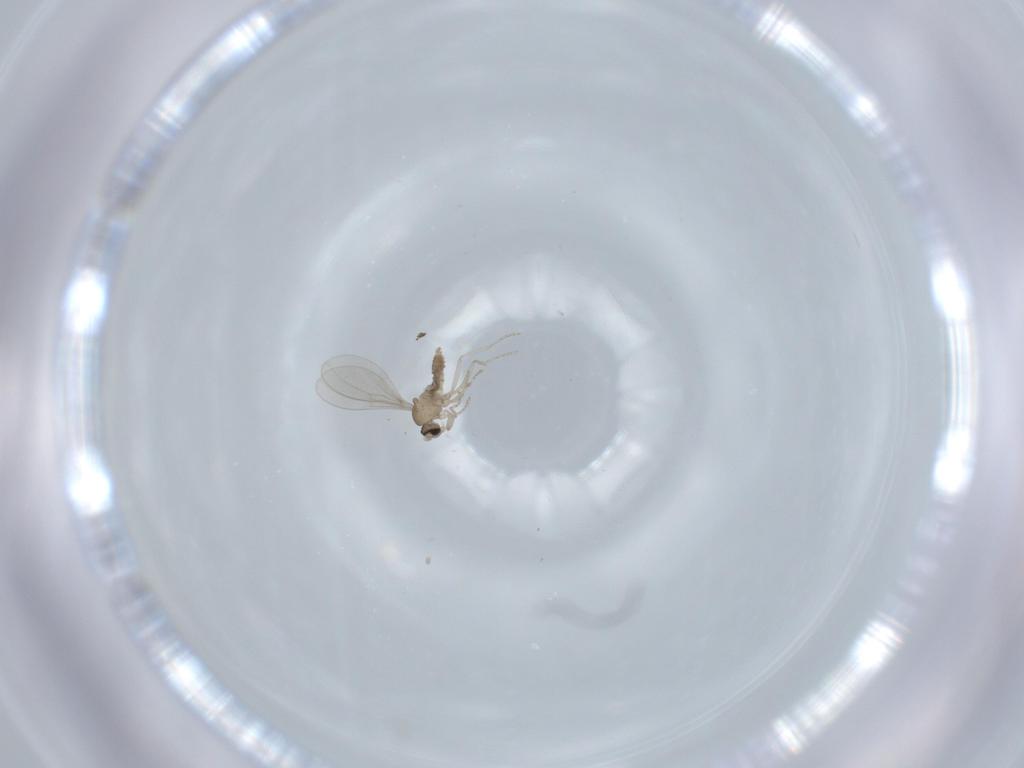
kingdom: Animalia
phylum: Arthropoda
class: Insecta
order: Diptera
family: Cecidomyiidae
